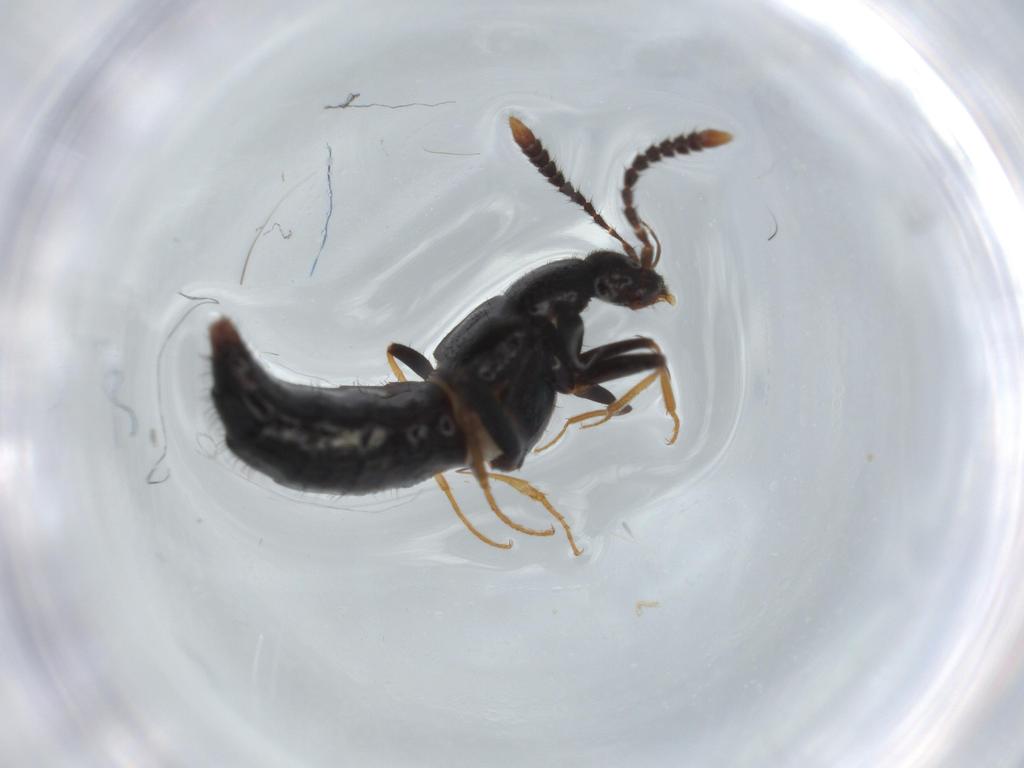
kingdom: Animalia
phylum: Arthropoda
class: Insecta
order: Coleoptera
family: Staphylinidae
